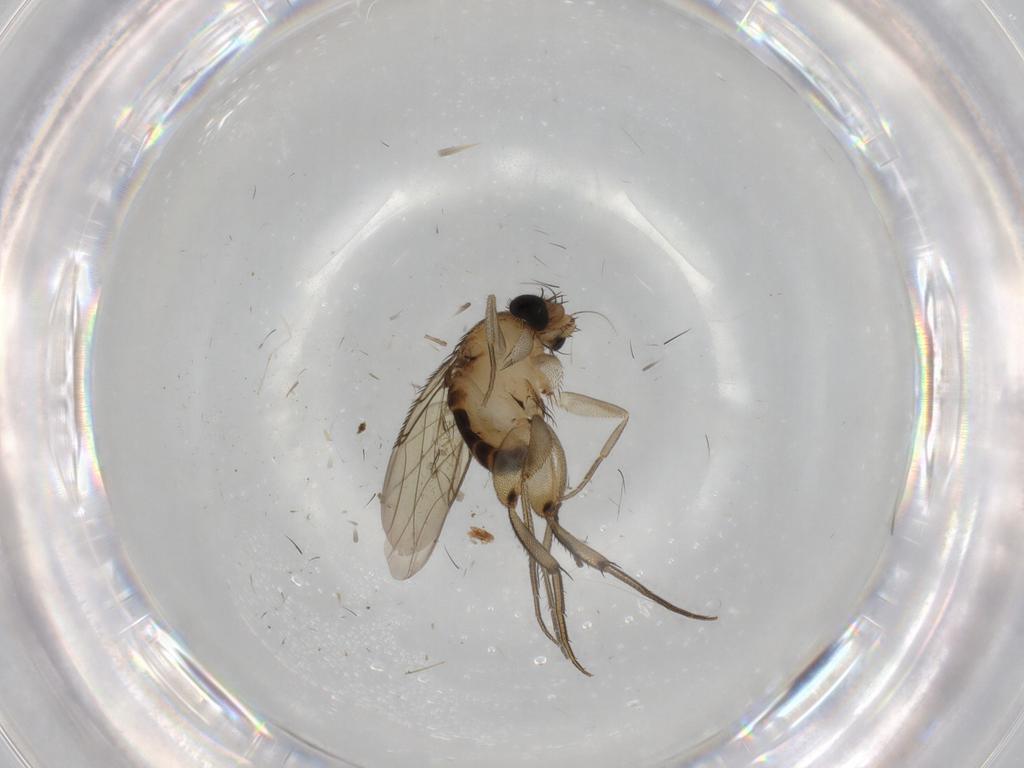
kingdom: Animalia
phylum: Arthropoda
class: Insecta
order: Diptera
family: Phoridae
